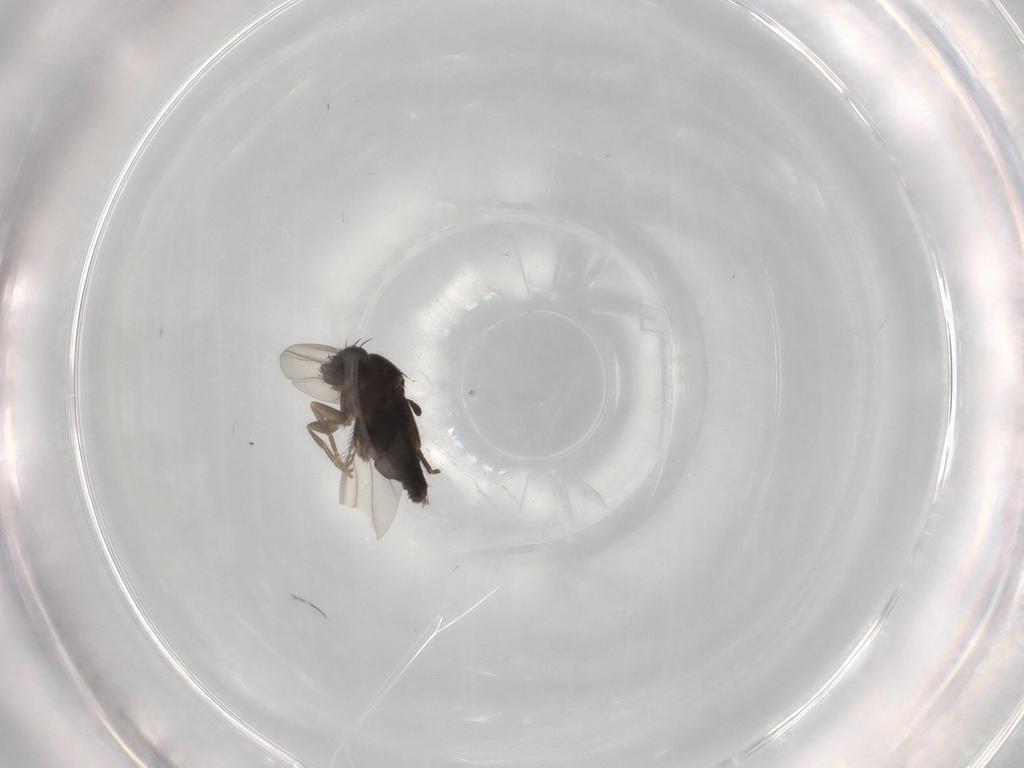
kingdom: Animalia
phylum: Arthropoda
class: Insecta
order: Diptera
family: Phoridae
